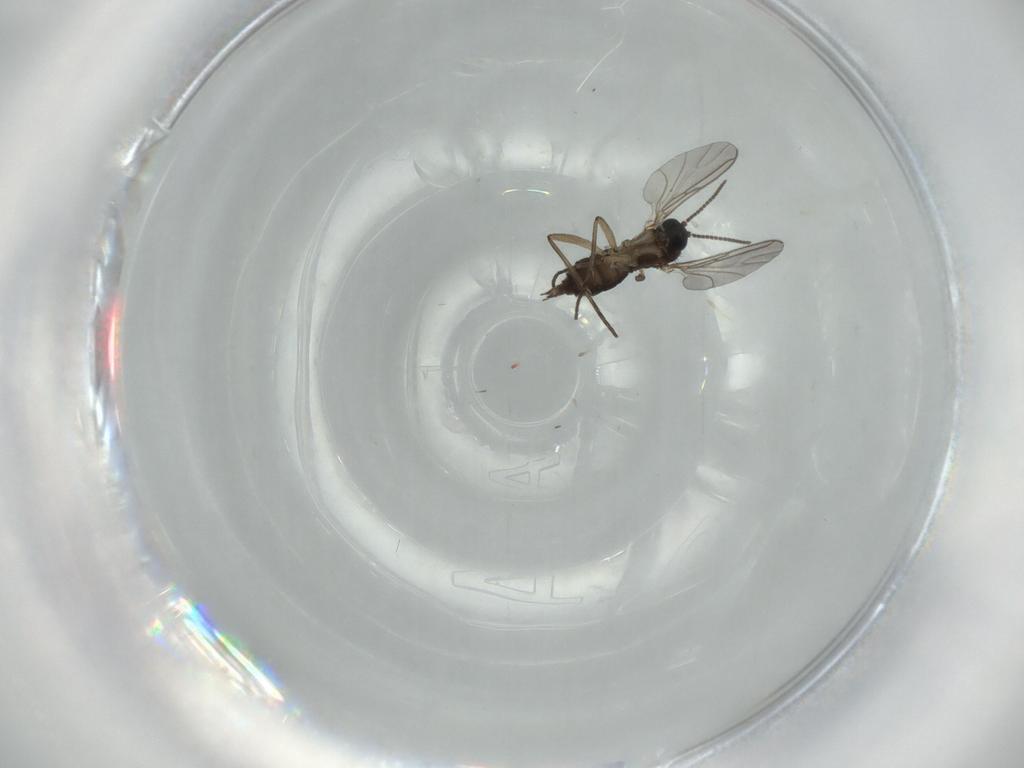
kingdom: Animalia
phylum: Arthropoda
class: Insecta
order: Diptera
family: Sciaridae
